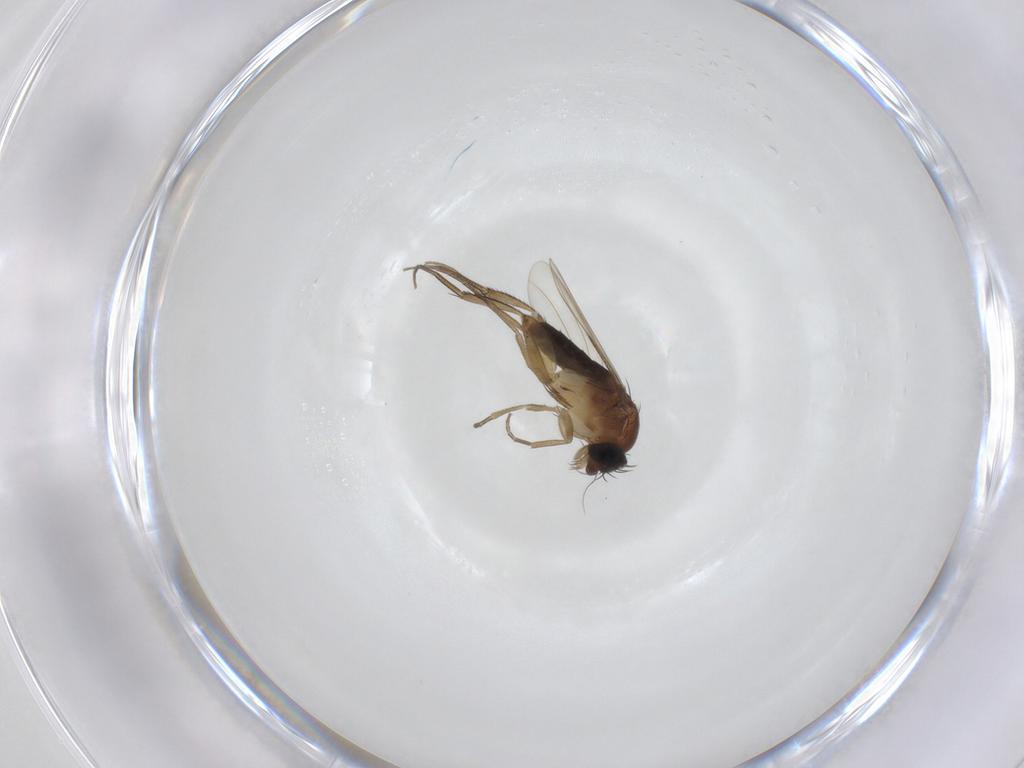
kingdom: Animalia
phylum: Arthropoda
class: Insecta
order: Diptera
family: Phoridae
